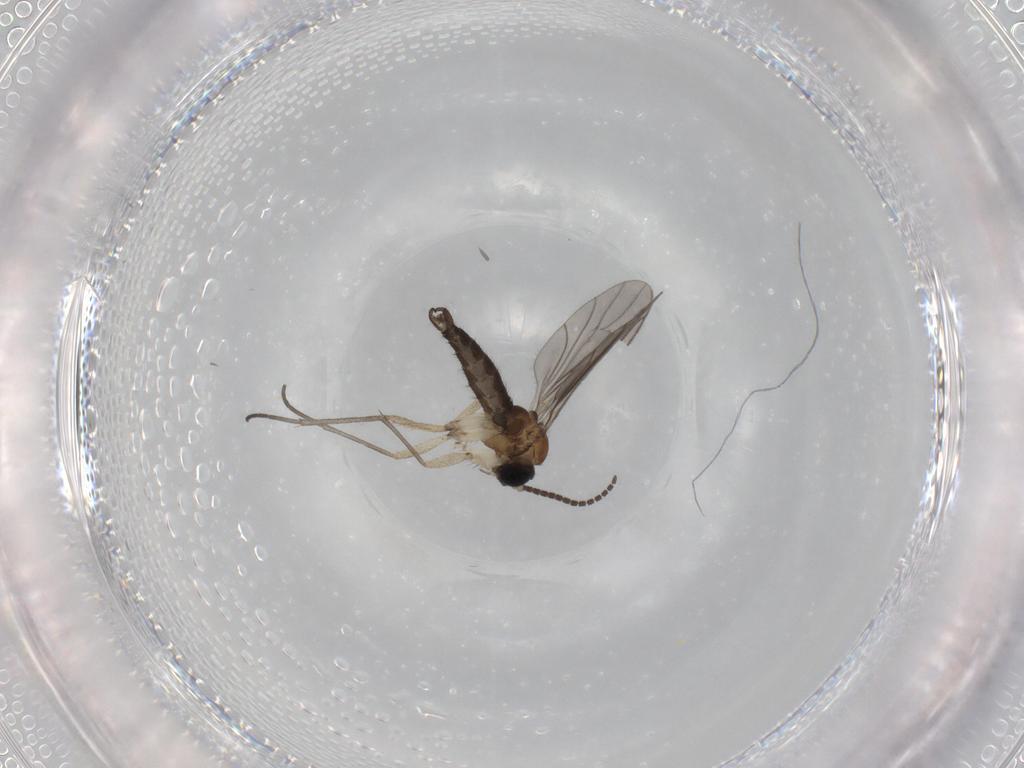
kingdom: Animalia
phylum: Arthropoda
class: Insecta
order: Diptera
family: Sciaridae
